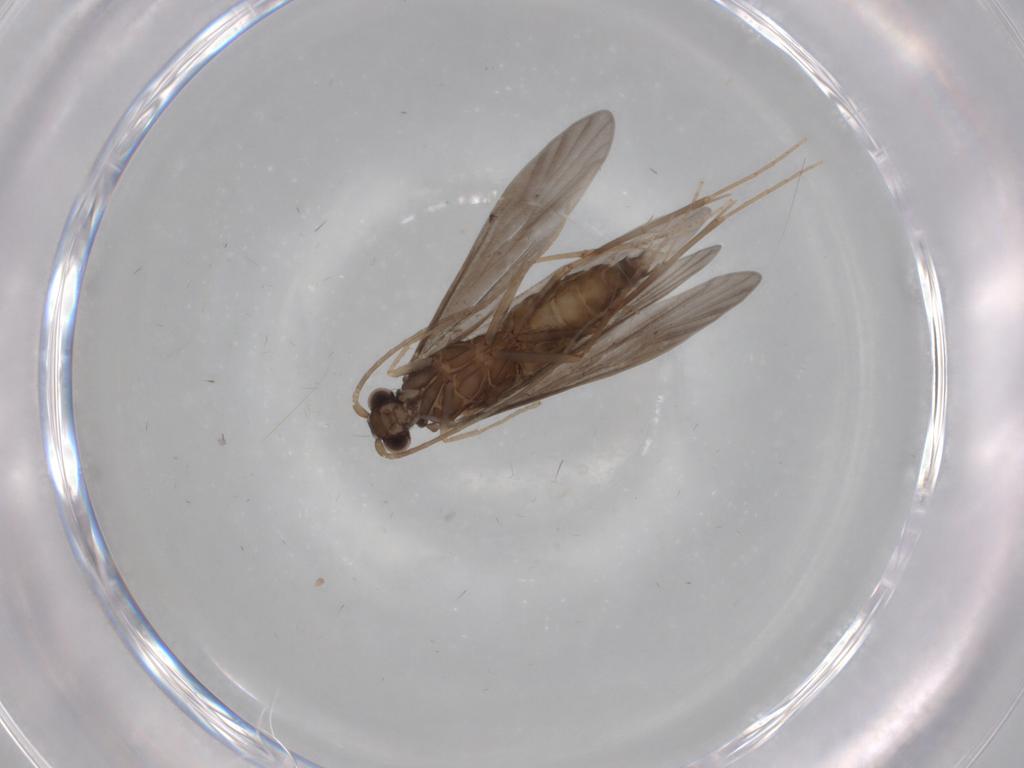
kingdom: Animalia
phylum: Arthropoda
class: Insecta
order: Trichoptera
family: Xiphocentronidae
